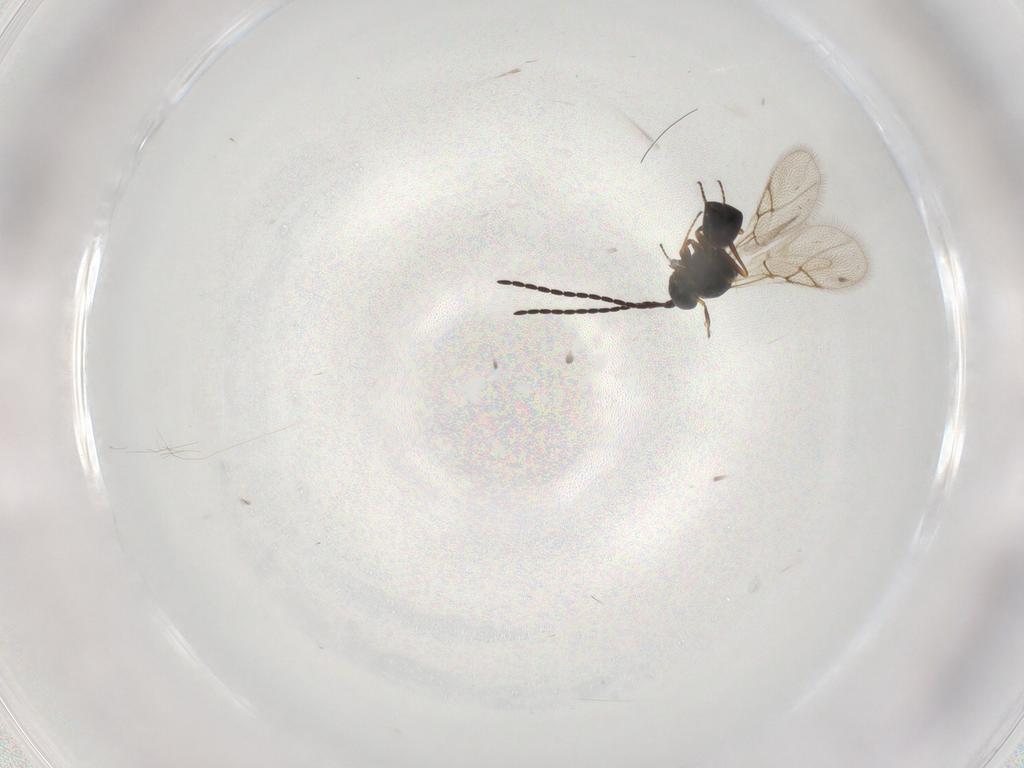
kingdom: Animalia
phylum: Arthropoda
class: Insecta
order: Hymenoptera
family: Figitidae
